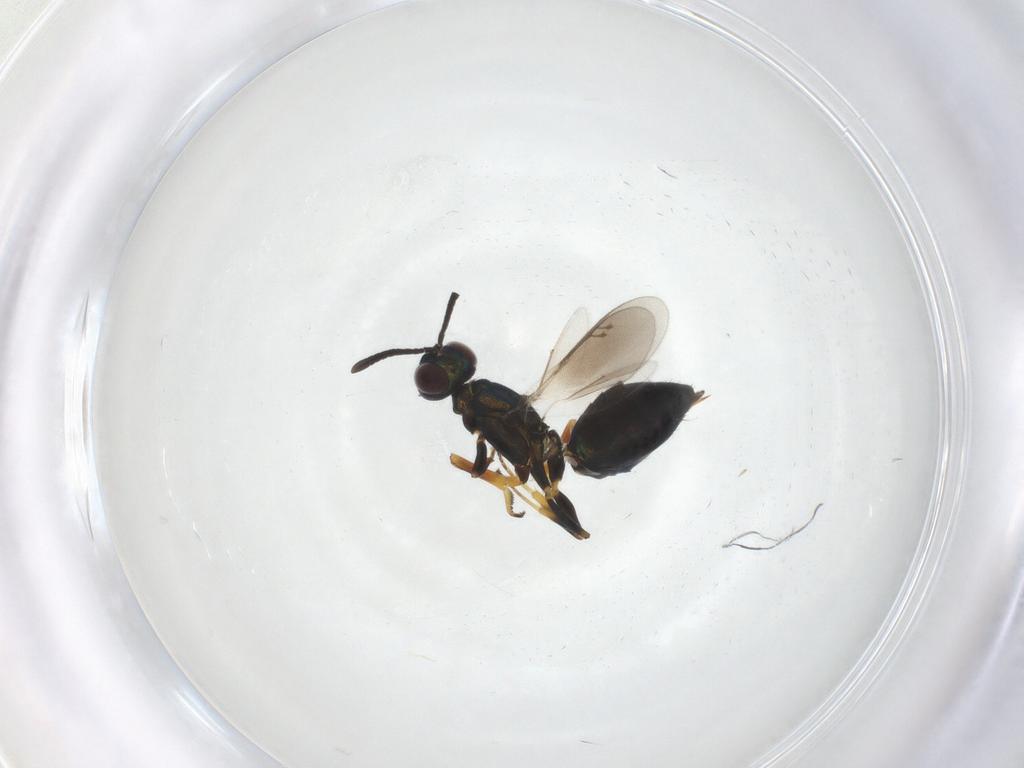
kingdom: Animalia
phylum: Arthropoda
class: Insecta
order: Hymenoptera
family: Eupelmidae
